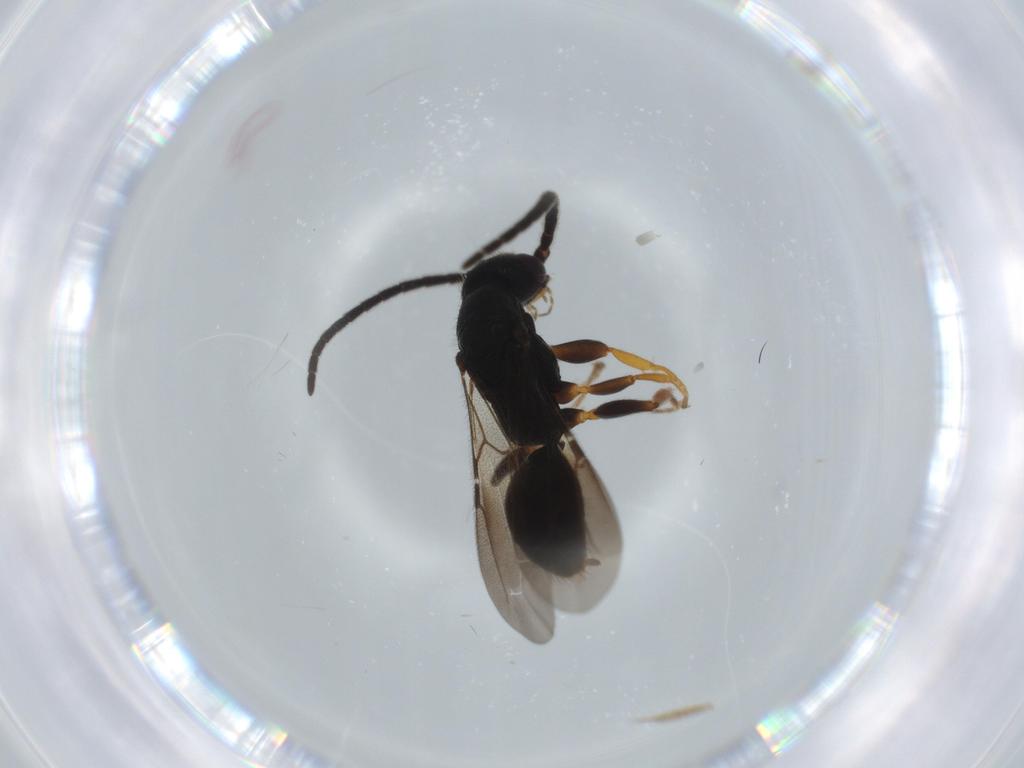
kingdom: Animalia
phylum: Arthropoda
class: Insecta
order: Hymenoptera
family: Bethylidae
